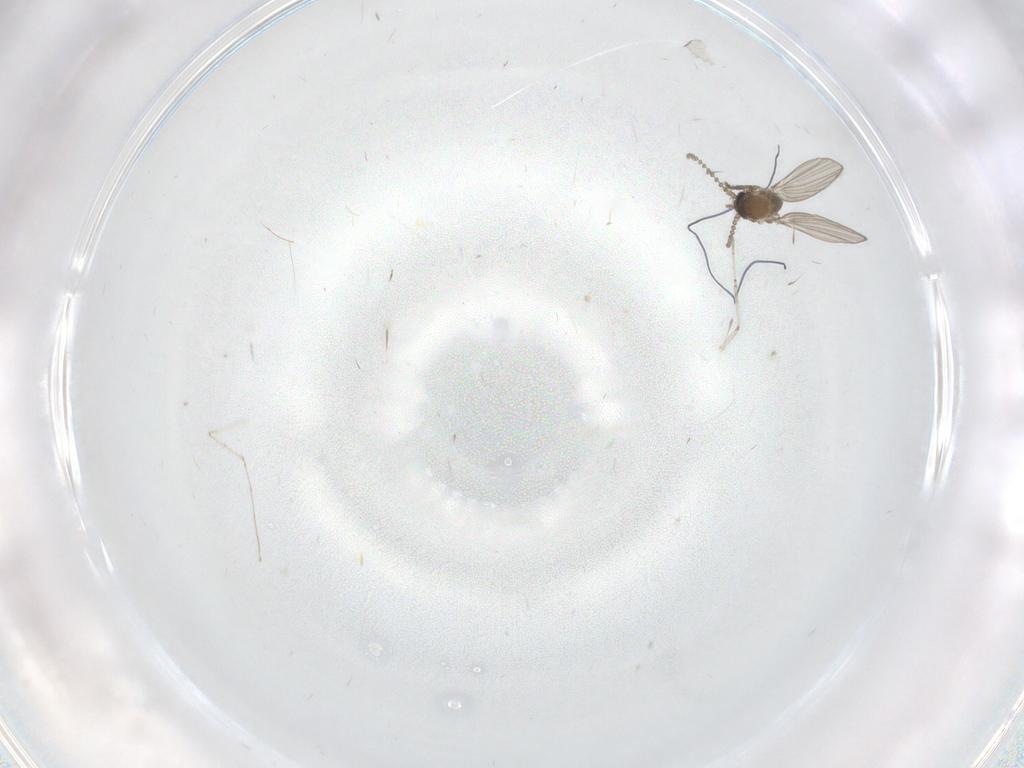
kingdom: Animalia
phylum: Arthropoda
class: Insecta
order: Diptera
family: Psychodidae
